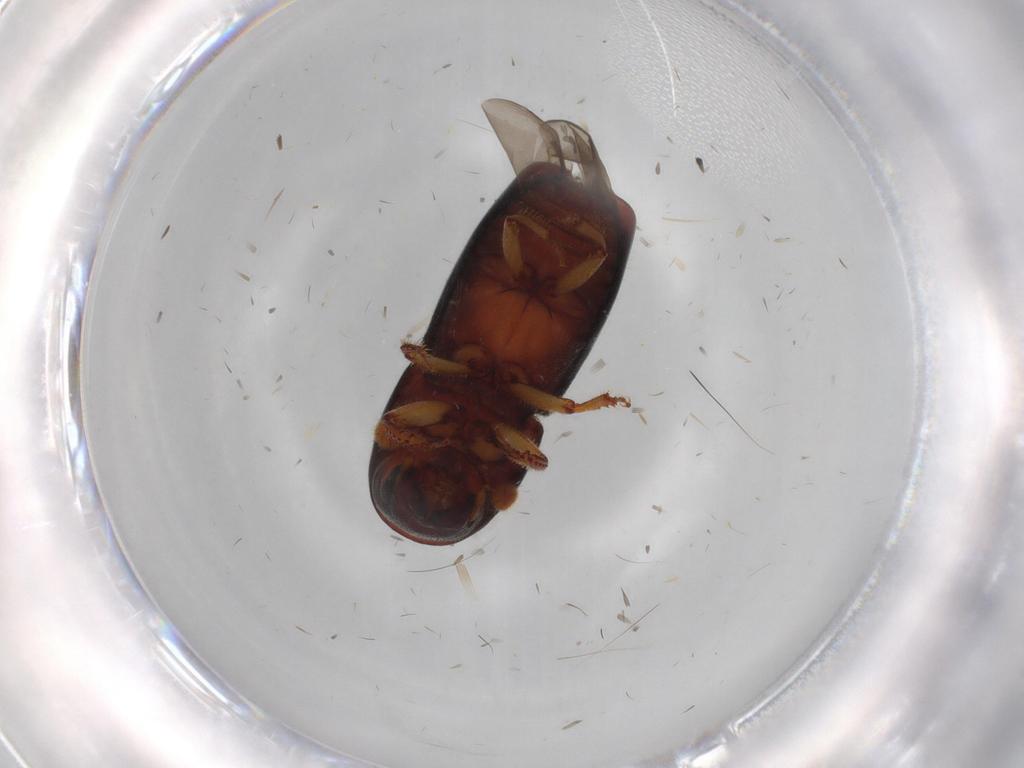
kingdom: Animalia
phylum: Arthropoda
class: Insecta
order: Coleoptera
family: Curculionidae
